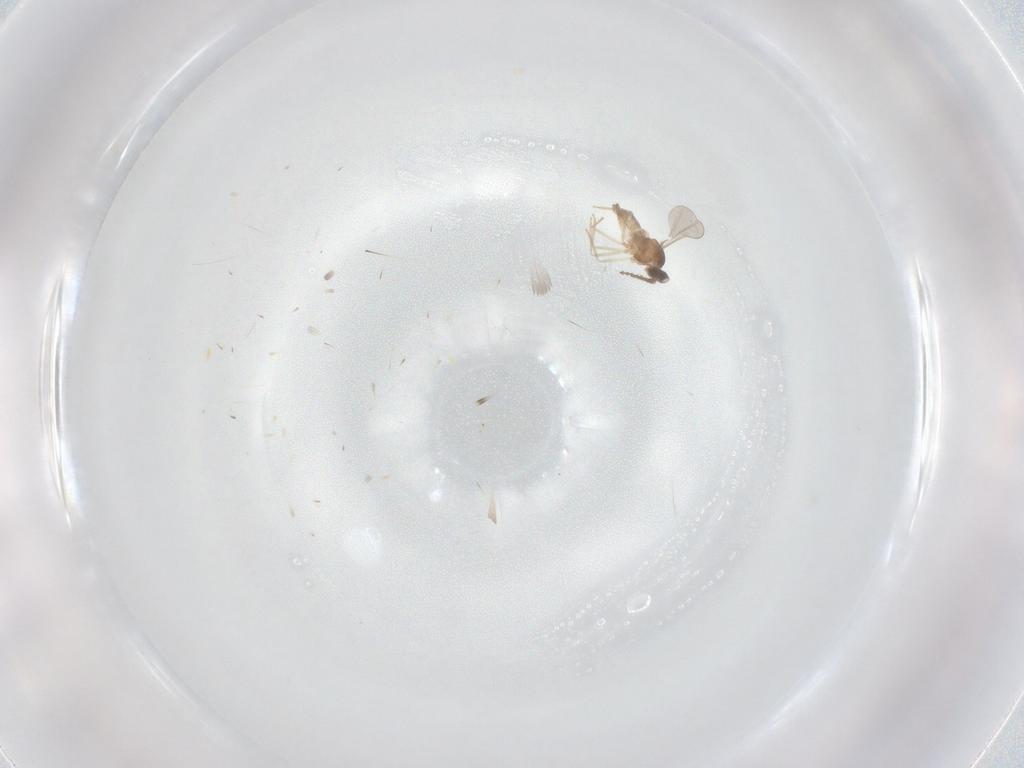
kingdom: Animalia
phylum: Arthropoda
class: Insecta
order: Diptera
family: Cecidomyiidae
